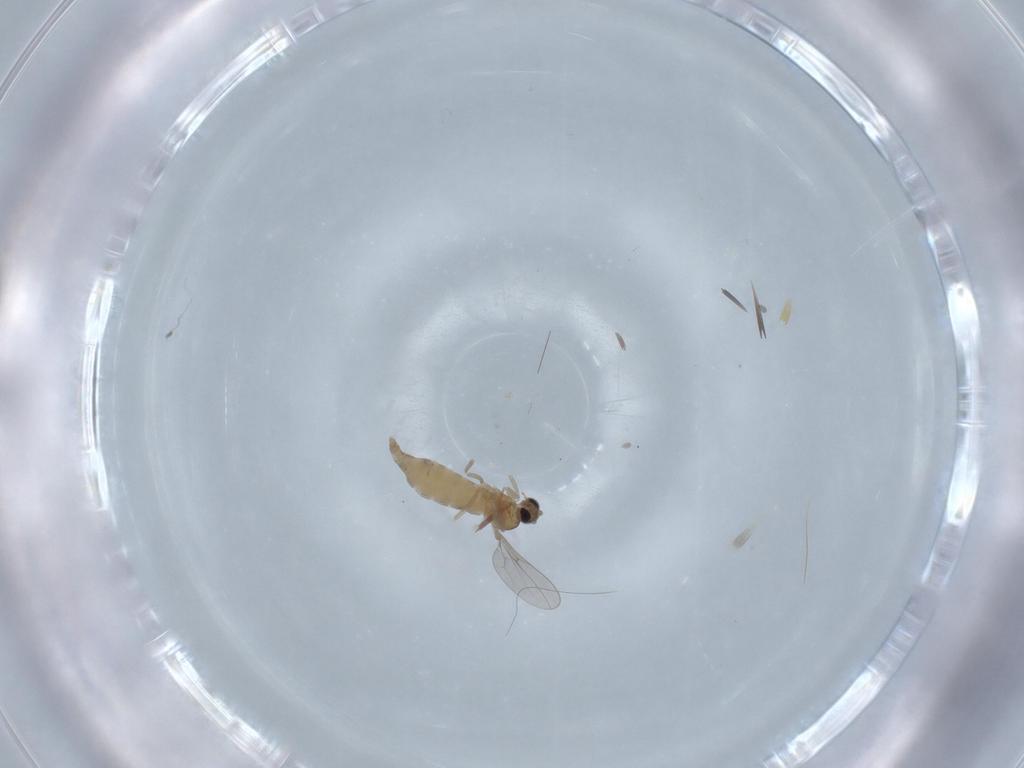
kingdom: Animalia
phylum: Arthropoda
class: Insecta
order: Diptera
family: Cecidomyiidae
